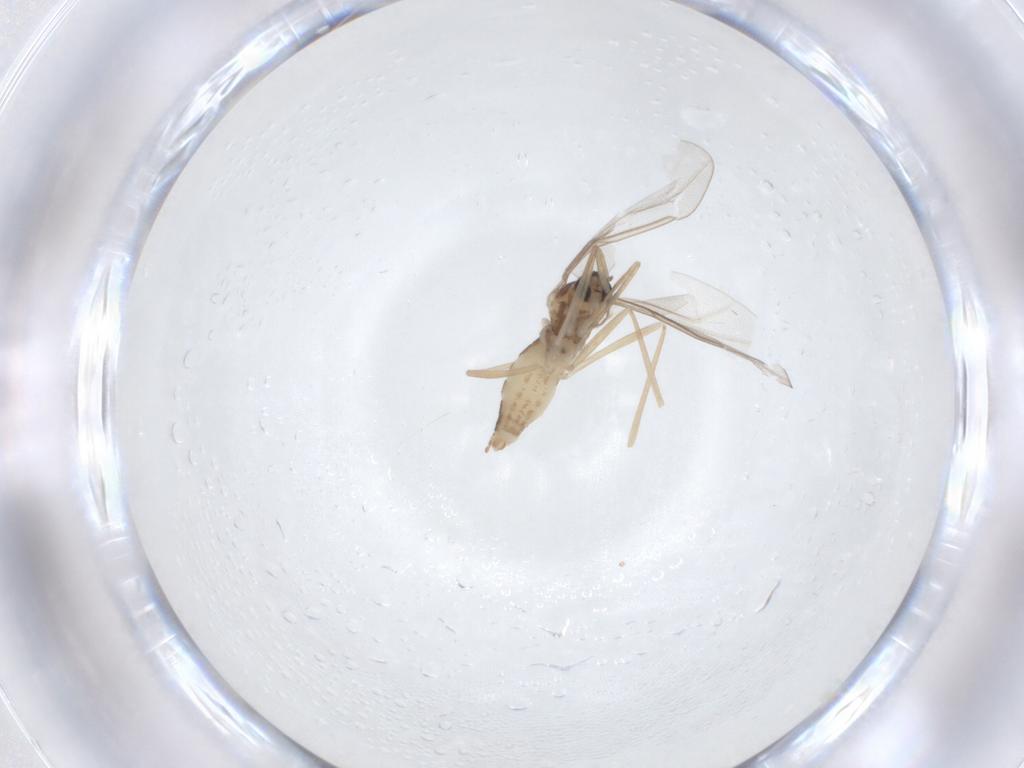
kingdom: Animalia
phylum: Arthropoda
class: Insecta
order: Diptera
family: Cecidomyiidae
